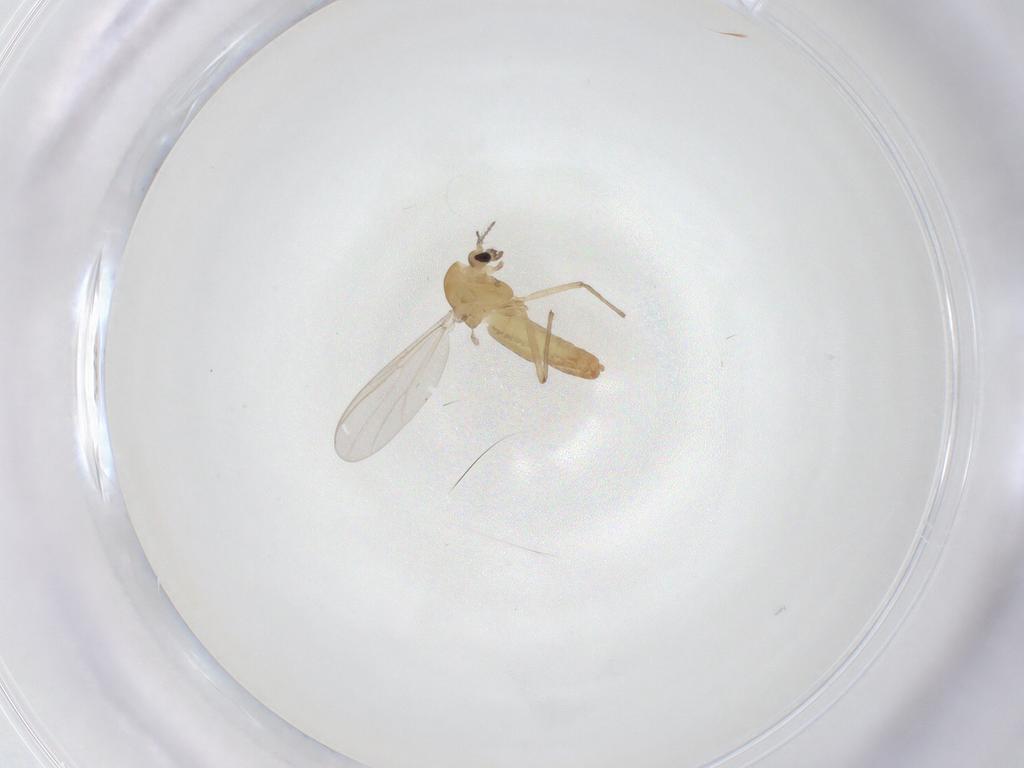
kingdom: Animalia
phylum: Arthropoda
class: Insecta
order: Diptera
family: Chironomidae
